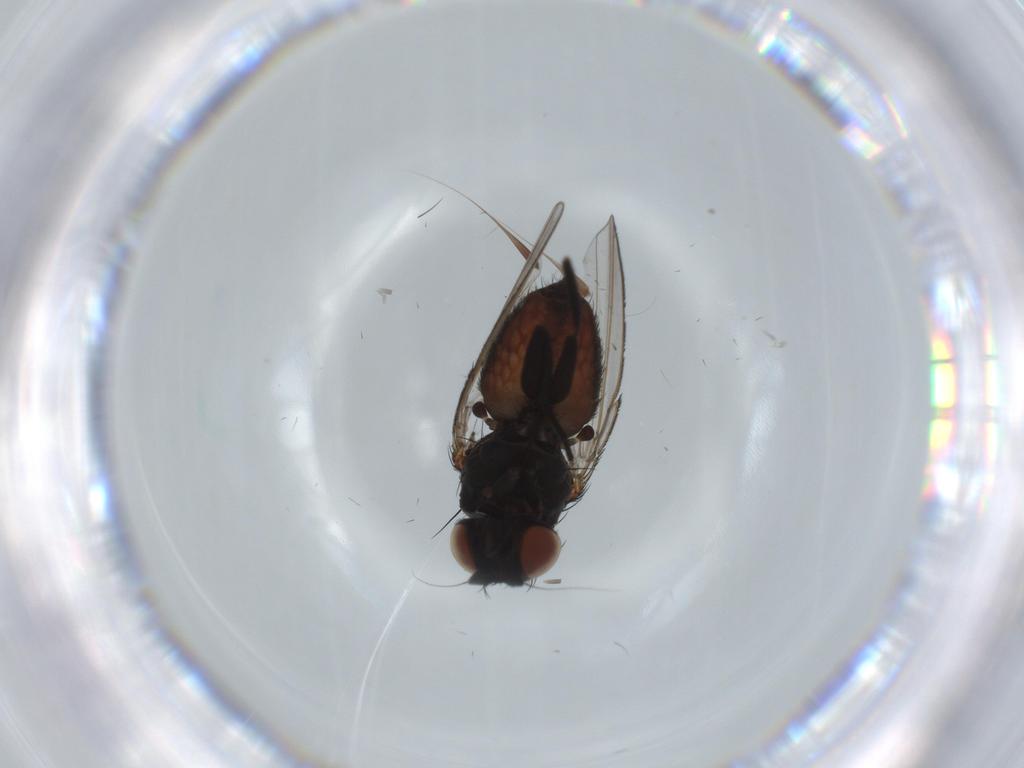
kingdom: Animalia
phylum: Arthropoda
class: Insecta
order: Diptera
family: Milichiidae
